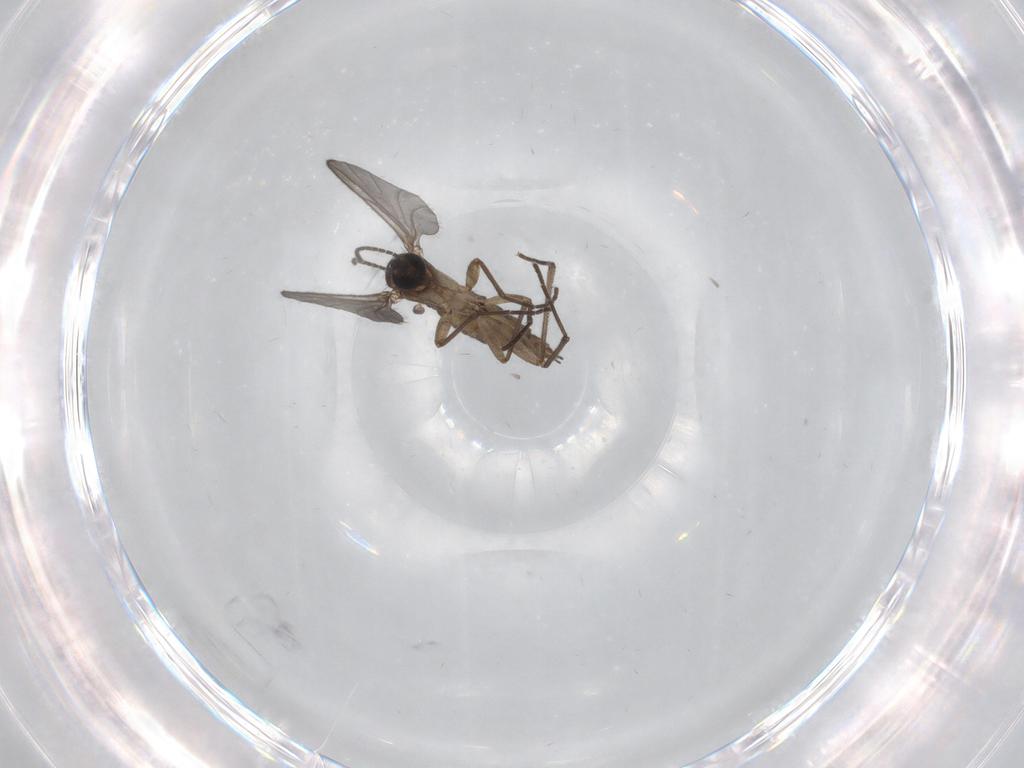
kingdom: Animalia
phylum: Arthropoda
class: Insecta
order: Diptera
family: Sciaridae
